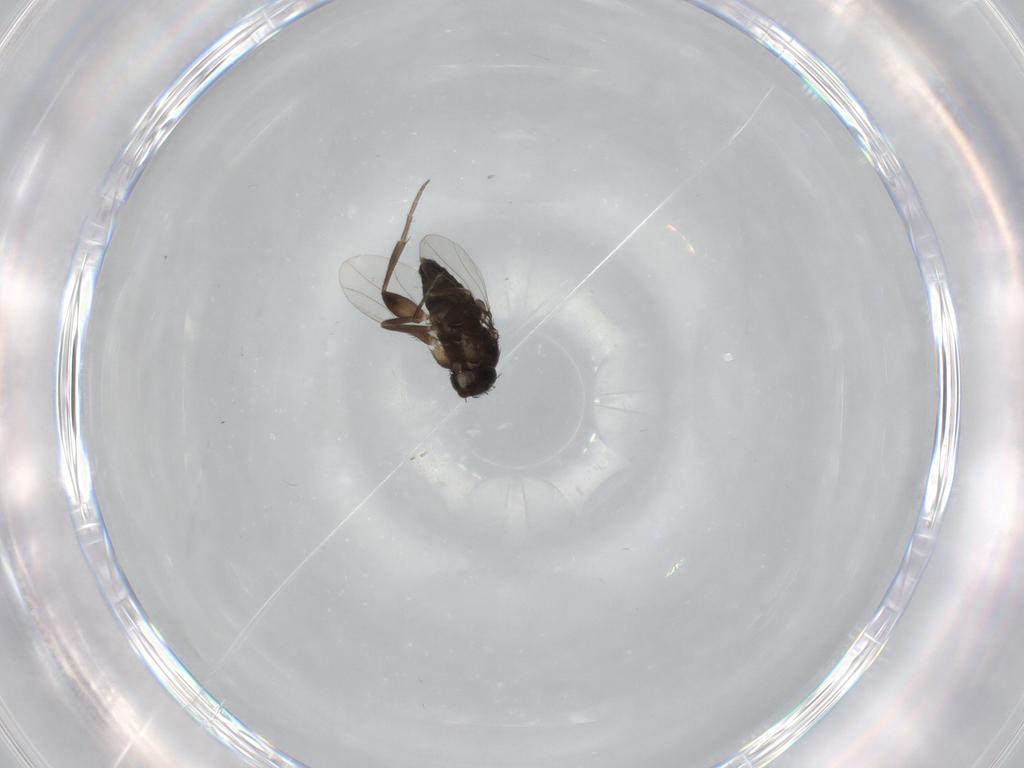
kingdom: Animalia
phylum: Arthropoda
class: Insecta
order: Diptera
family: Phoridae
